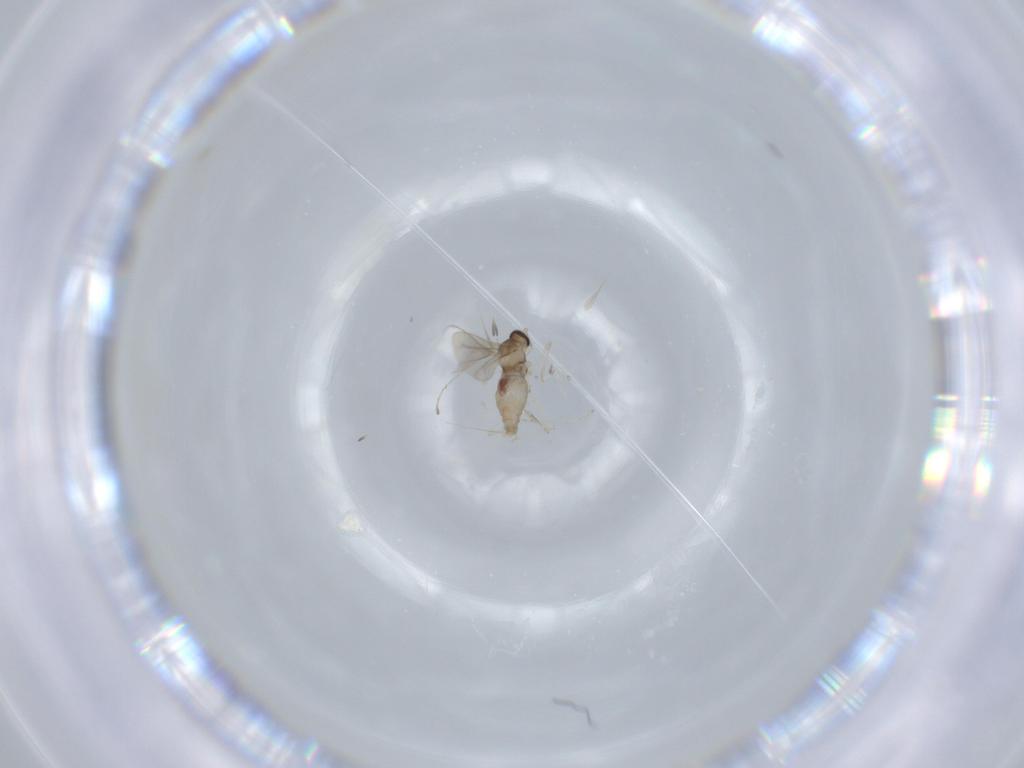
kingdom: Animalia
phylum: Arthropoda
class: Insecta
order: Diptera
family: Cecidomyiidae
